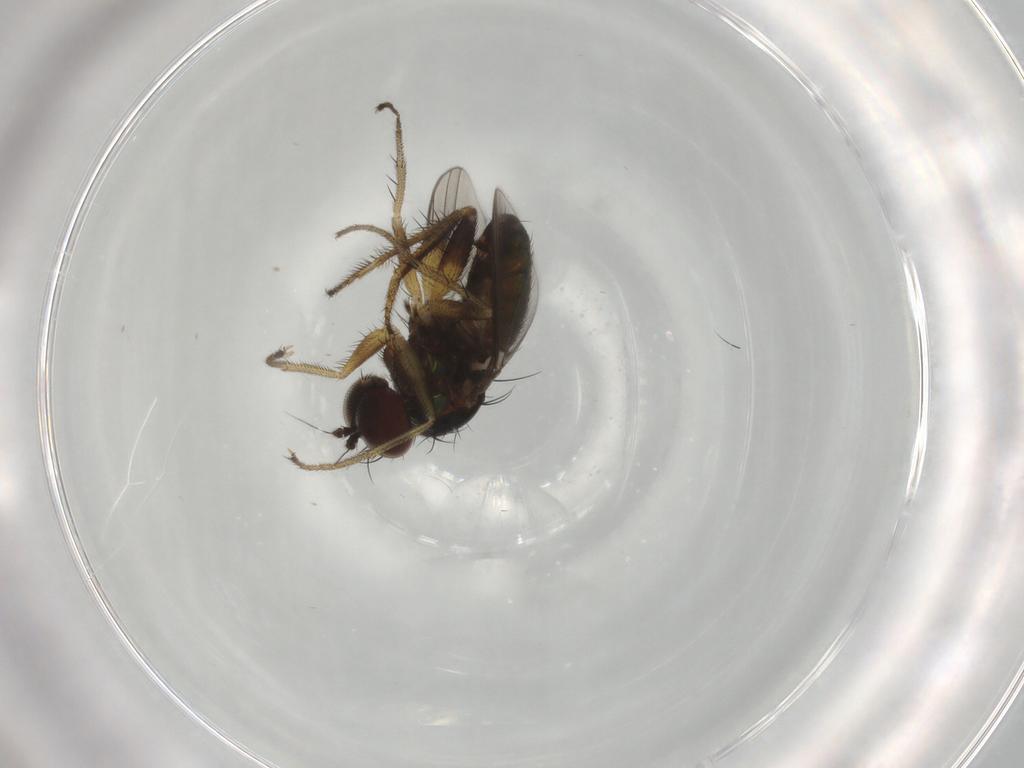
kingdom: Animalia
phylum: Arthropoda
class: Insecta
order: Diptera
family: Dolichopodidae
